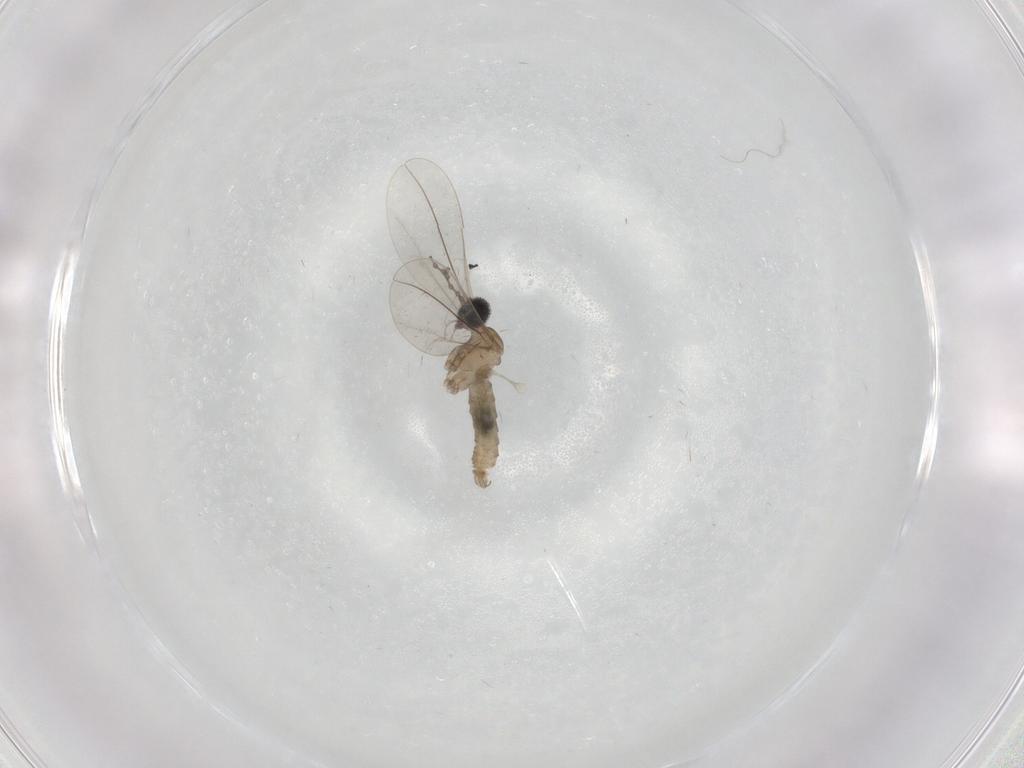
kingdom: Animalia
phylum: Arthropoda
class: Insecta
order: Diptera
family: Cecidomyiidae
